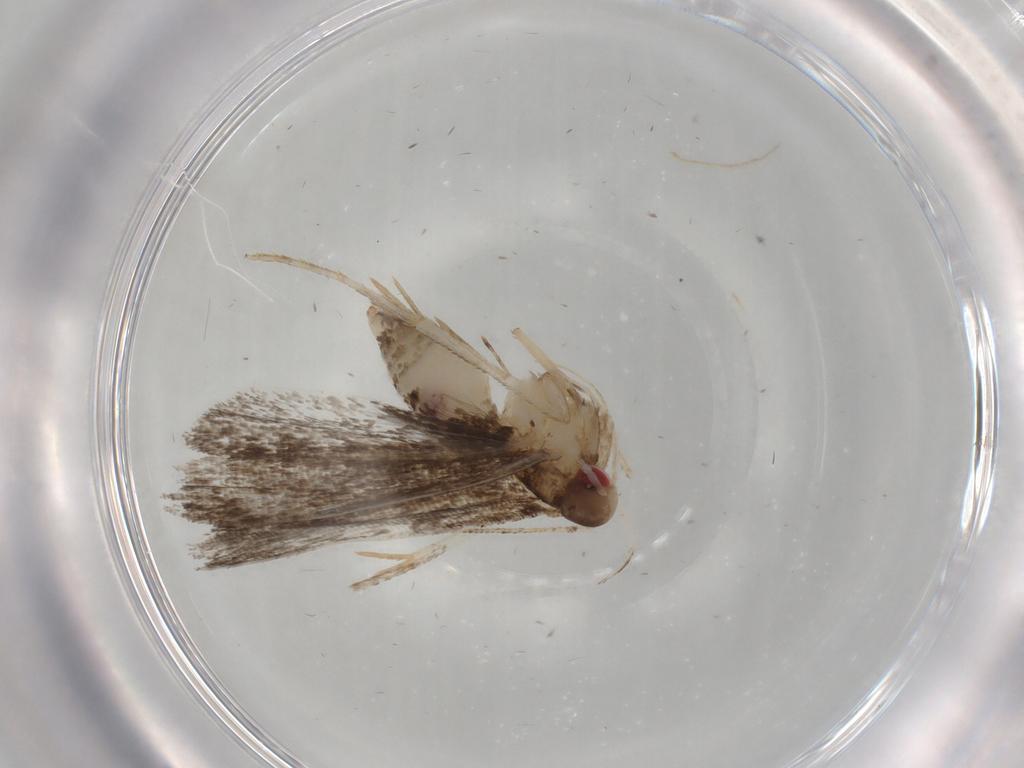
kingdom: Animalia
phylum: Arthropoda
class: Insecta
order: Lepidoptera
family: Gelechiidae
